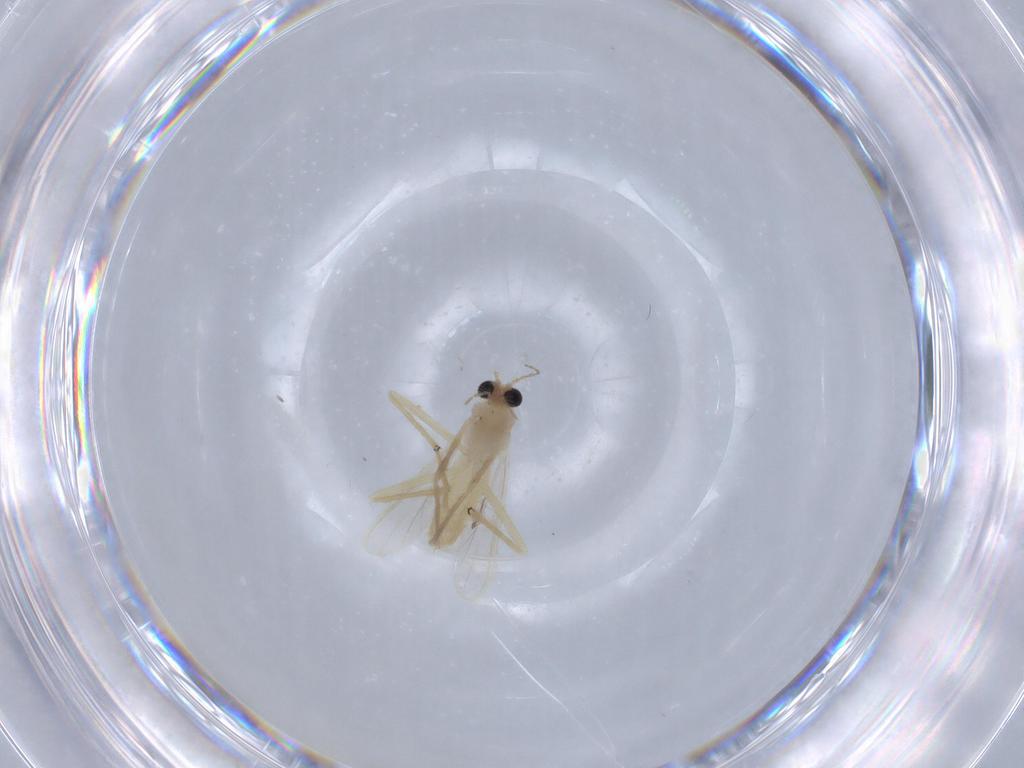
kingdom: Animalia
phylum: Arthropoda
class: Insecta
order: Diptera
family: Chironomidae
